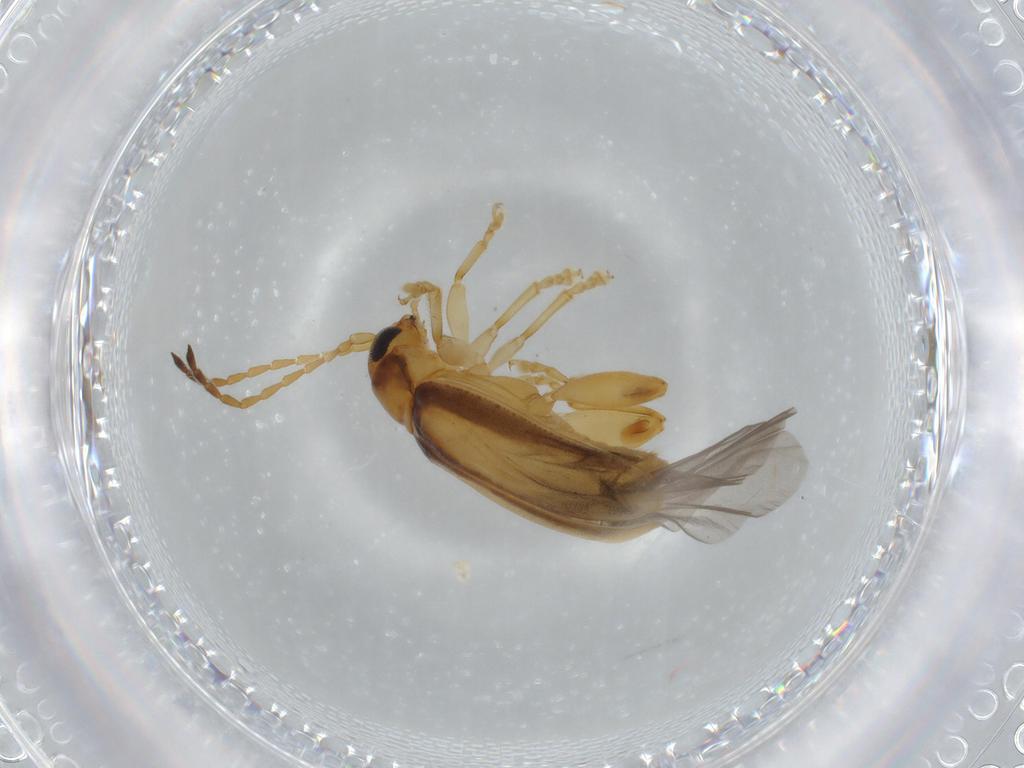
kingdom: Animalia
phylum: Arthropoda
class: Insecta
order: Coleoptera
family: Chrysomelidae
